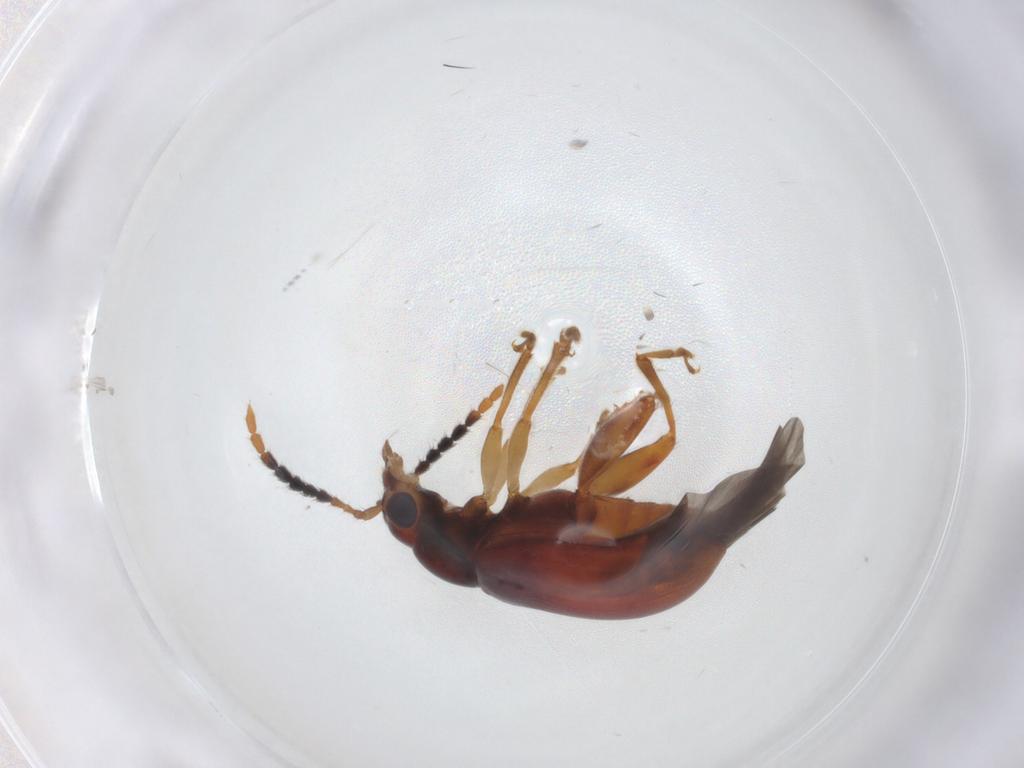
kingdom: Animalia
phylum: Arthropoda
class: Insecta
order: Coleoptera
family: Chrysomelidae
